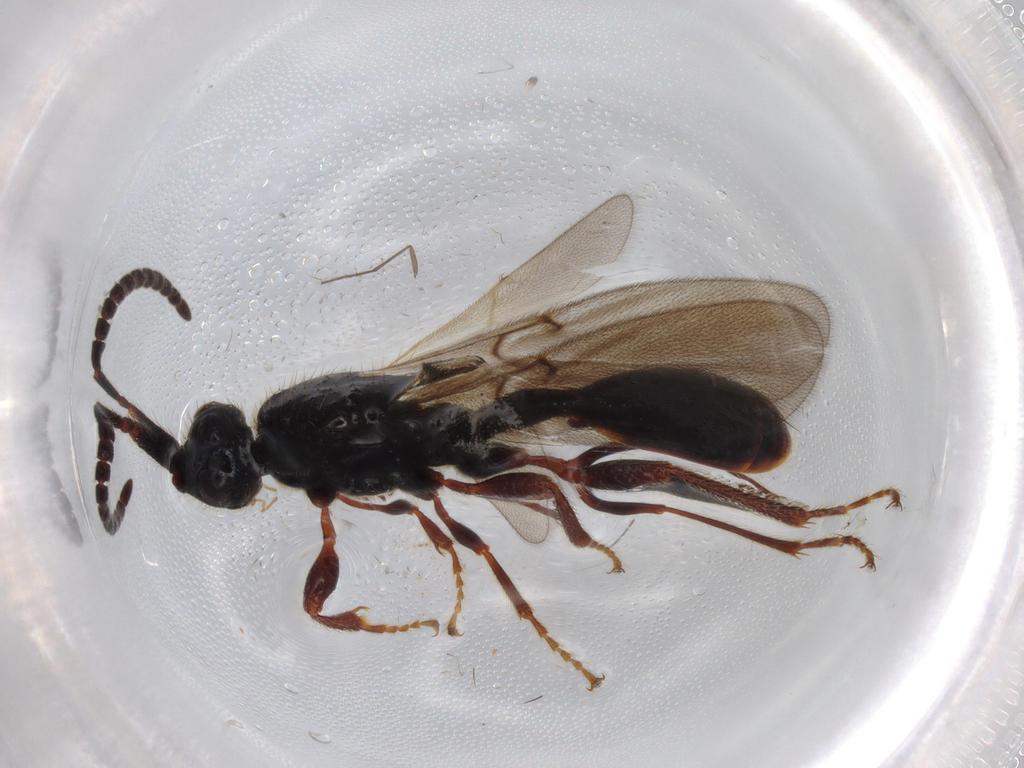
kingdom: Animalia
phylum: Arthropoda
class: Insecta
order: Hymenoptera
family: Diapriidae
